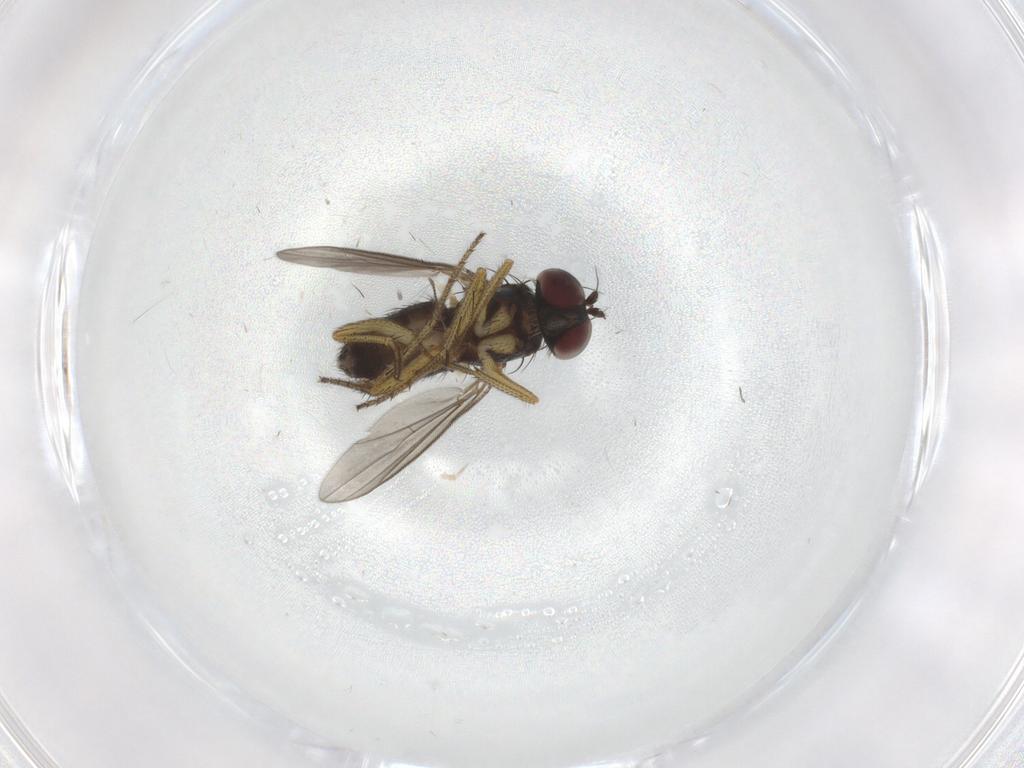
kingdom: Animalia
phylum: Arthropoda
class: Insecta
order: Diptera
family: Dolichopodidae
